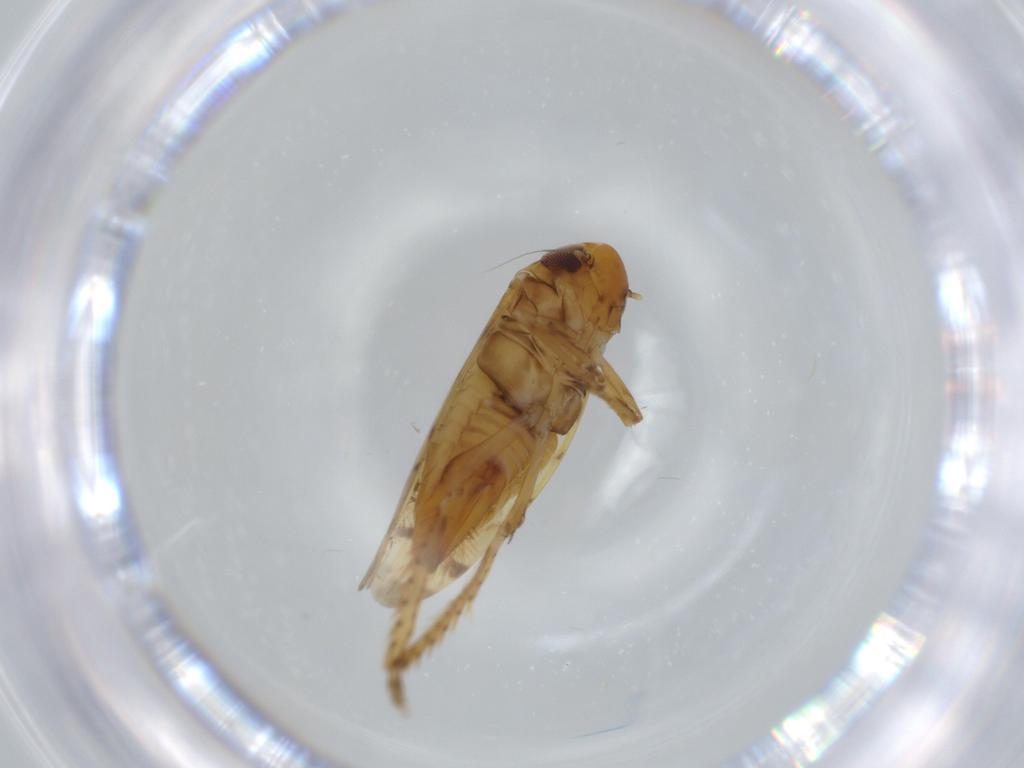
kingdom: Animalia
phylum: Arthropoda
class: Insecta
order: Hemiptera
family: Cicadellidae
